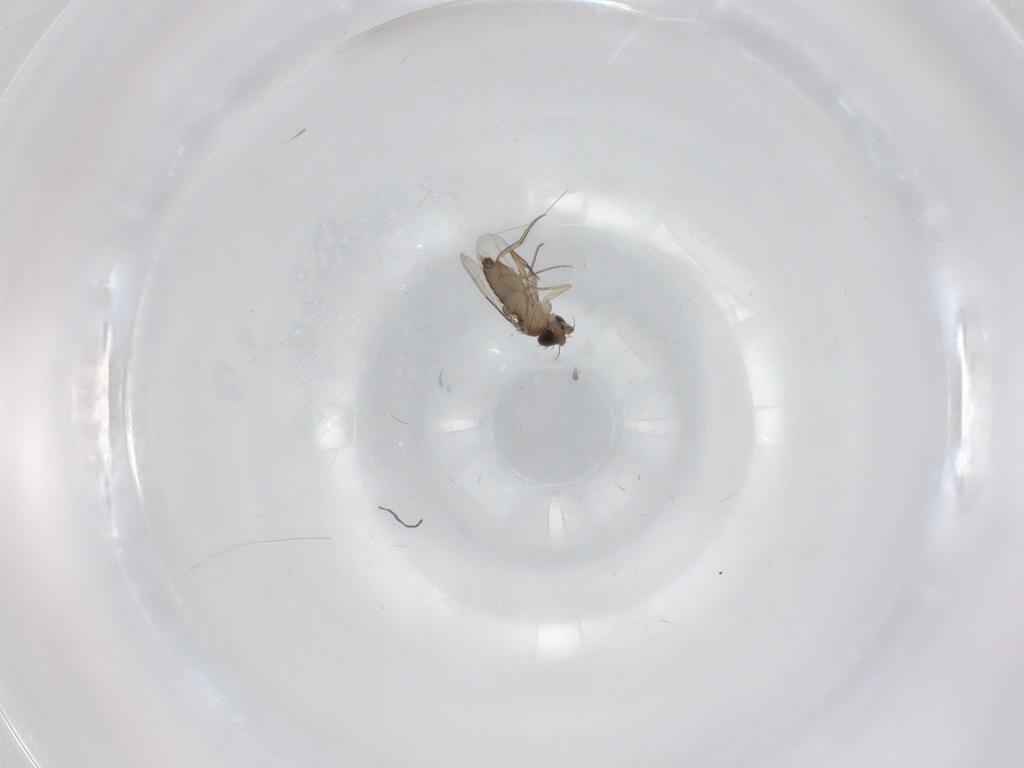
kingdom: Animalia
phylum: Arthropoda
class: Insecta
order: Diptera
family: Phoridae
